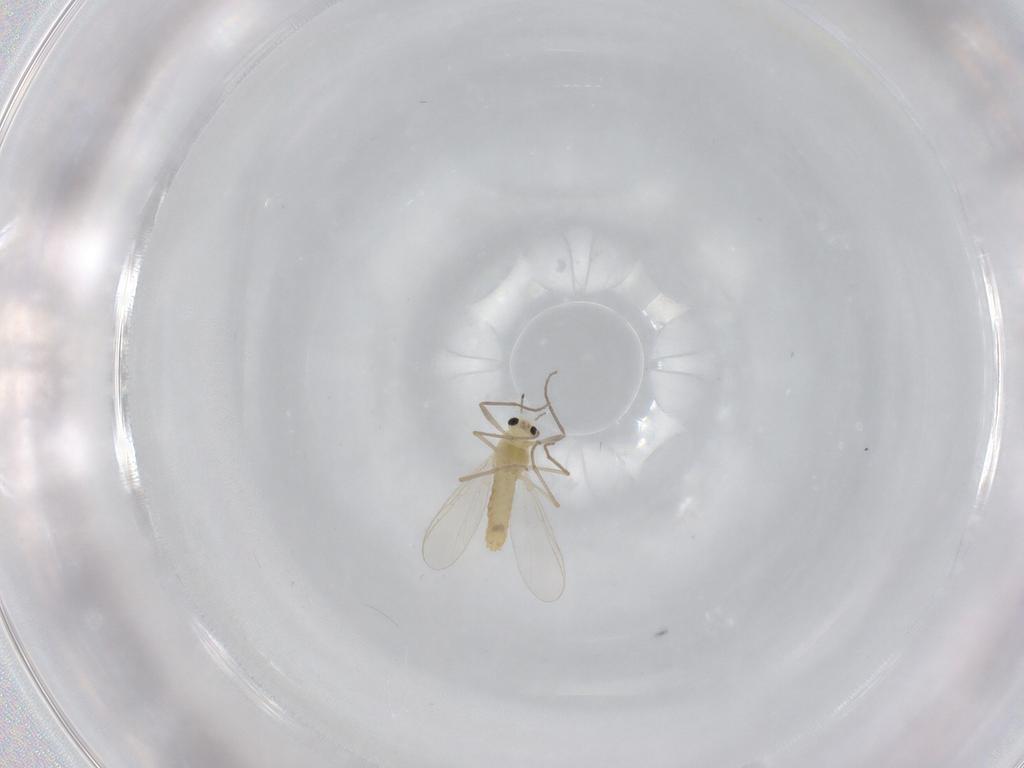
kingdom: Animalia
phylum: Arthropoda
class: Insecta
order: Diptera
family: Chironomidae
